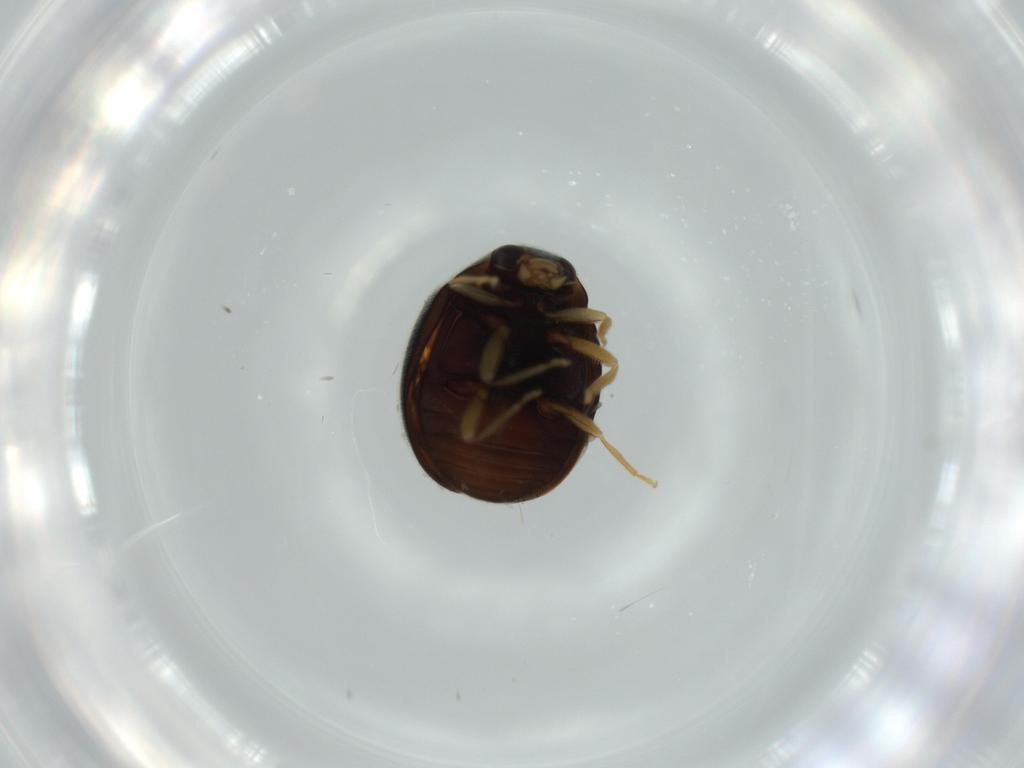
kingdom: Animalia
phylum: Arthropoda
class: Insecta
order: Coleoptera
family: Coccinellidae
